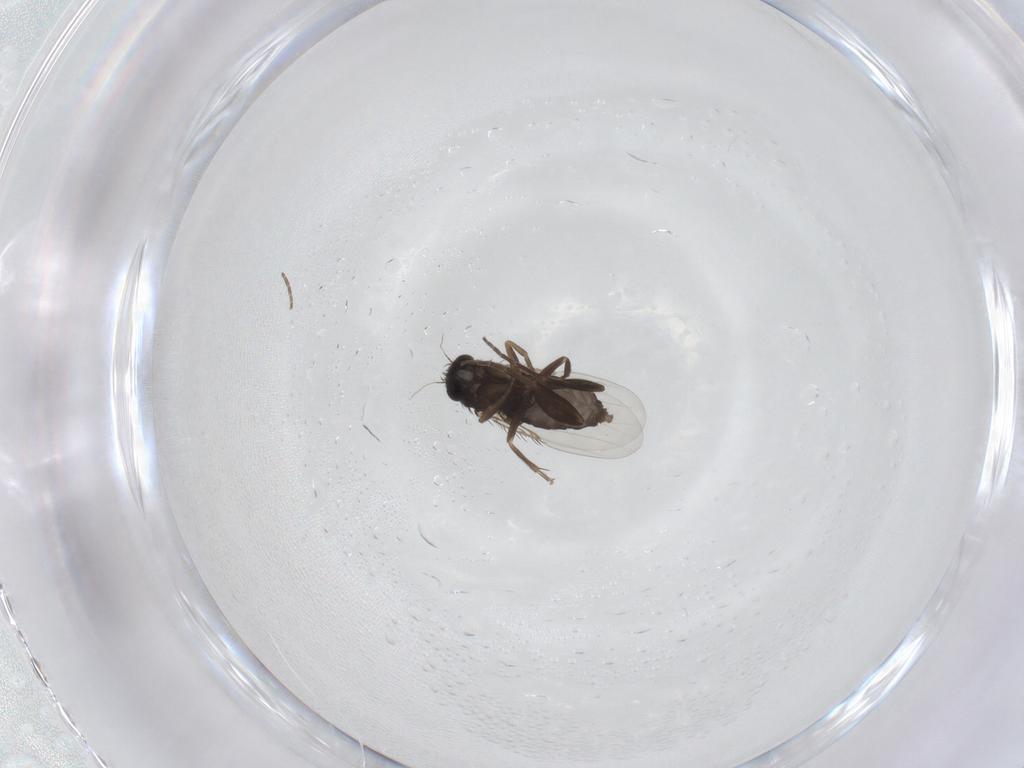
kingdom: Animalia
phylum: Arthropoda
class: Insecta
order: Diptera
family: Phoridae
